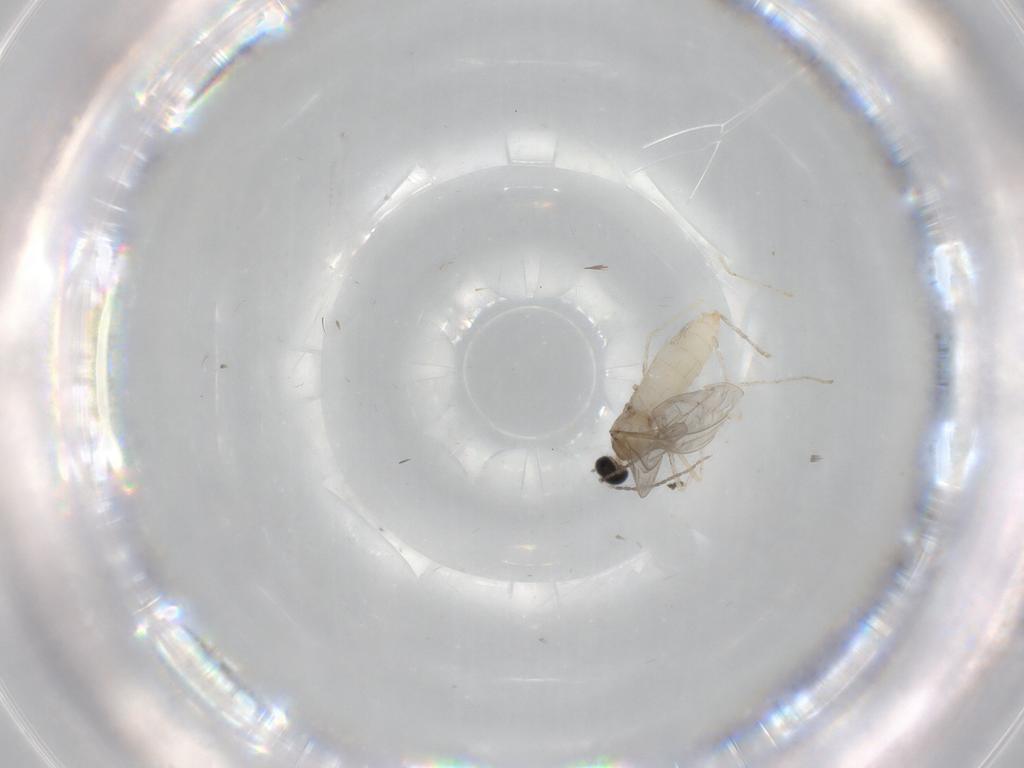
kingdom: Animalia
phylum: Arthropoda
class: Insecta
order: Diptera
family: Cecidomyiidae
